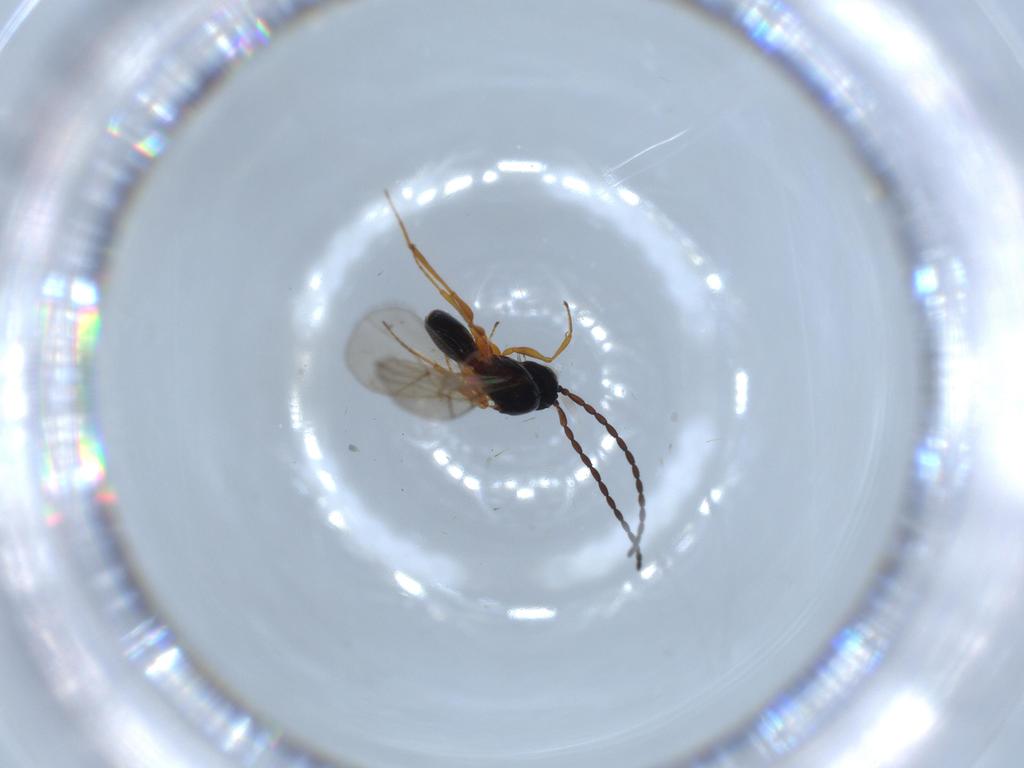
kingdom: Animalia
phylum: Arthropoda
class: Insecta
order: Hymenoptera
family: Figitidae
